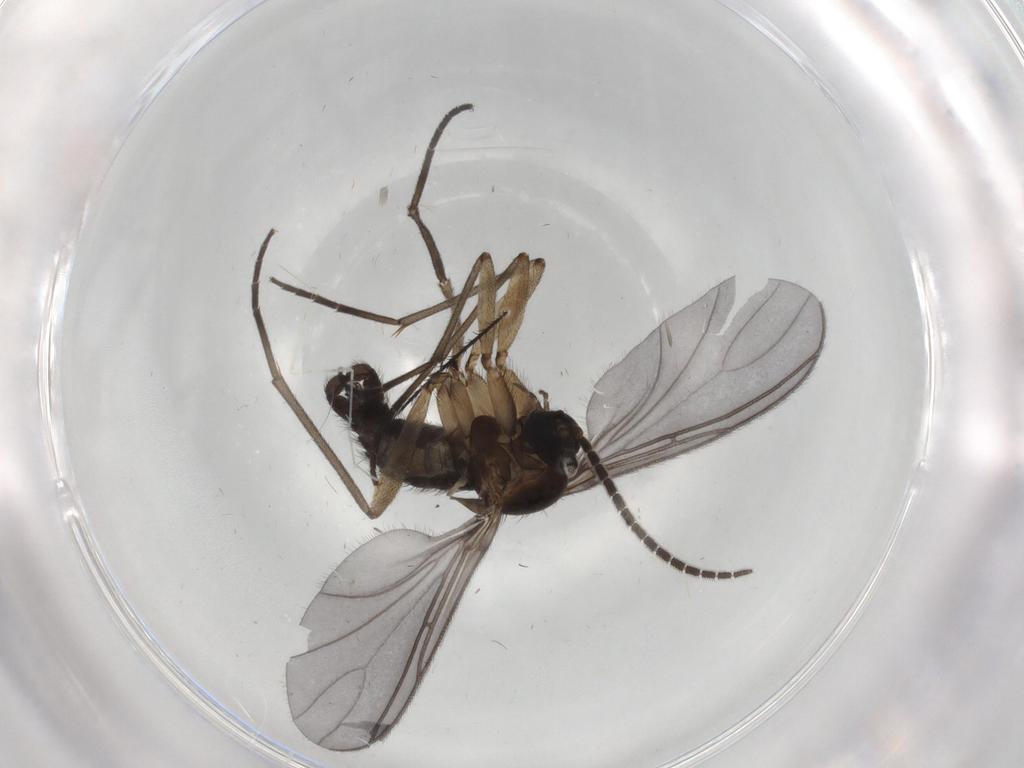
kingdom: Animalia
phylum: Arthropoda
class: Insecta
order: Diptera
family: Sciaridae
